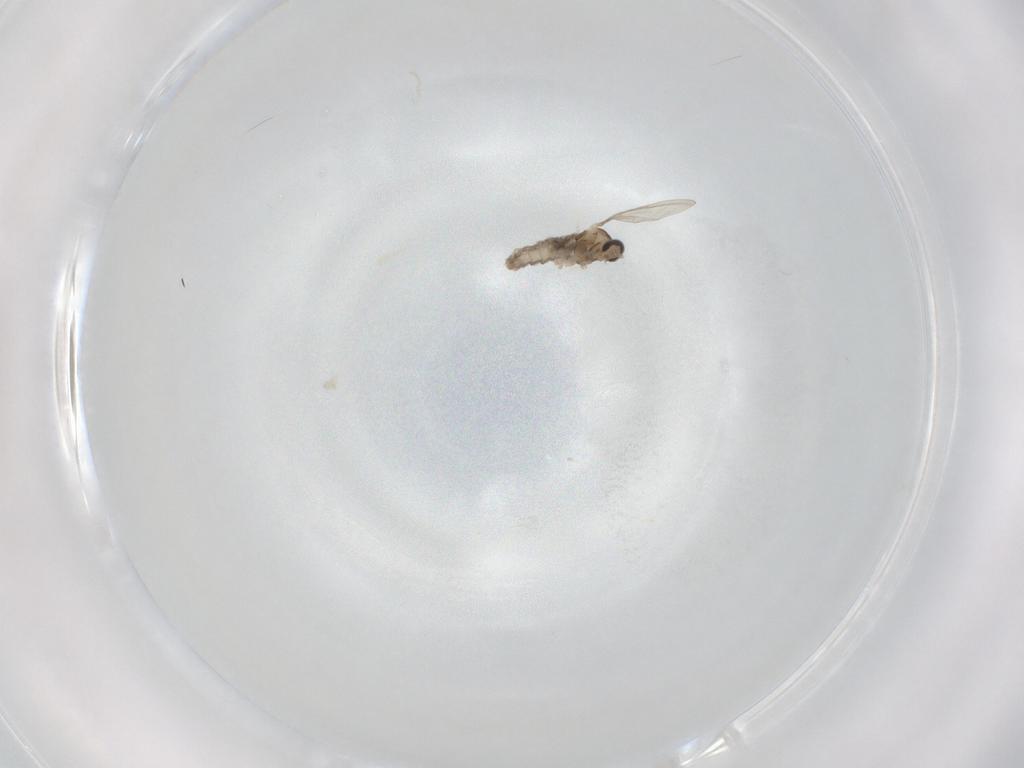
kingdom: Animalia
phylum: Arthropoda
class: Insecta
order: Diptera
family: Cecidomyiidae
